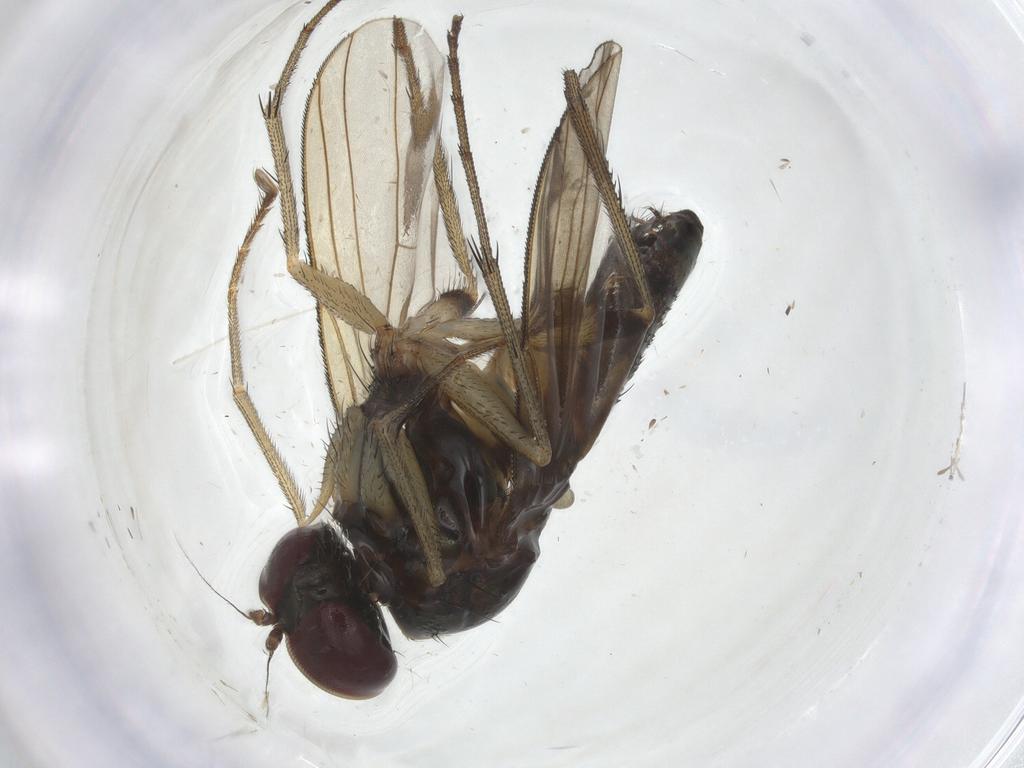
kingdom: Animalia
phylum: Arthropoda
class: Insecta
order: Diptera
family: Empididae
